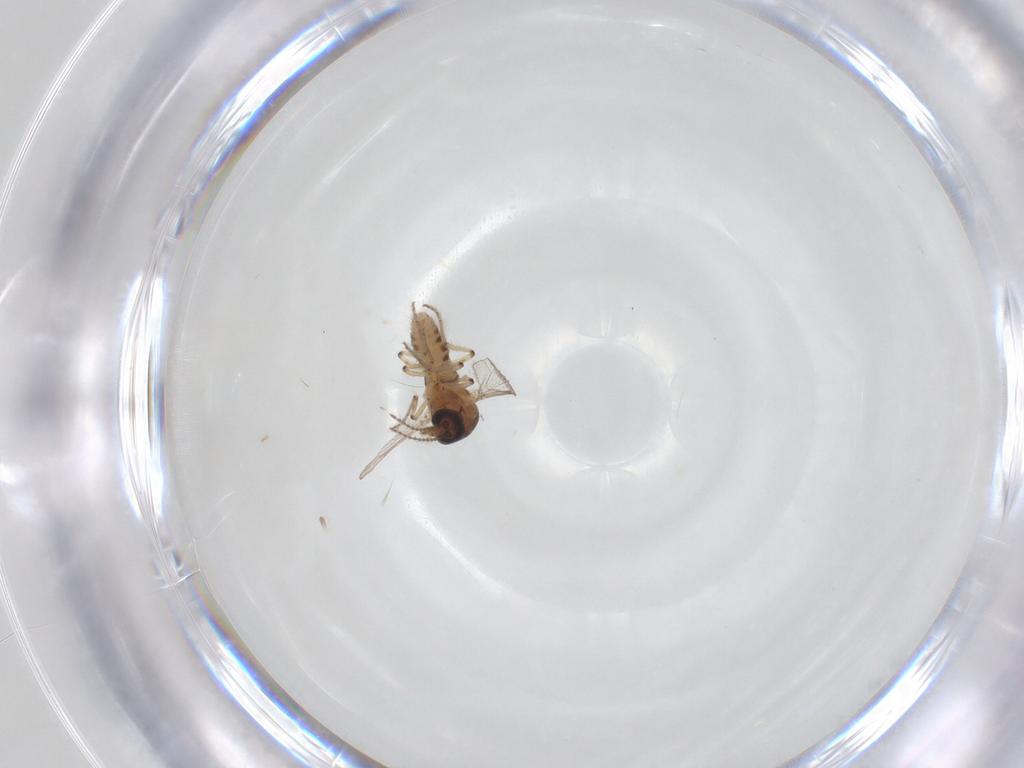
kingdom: Animalia
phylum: Arthropoda
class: Insecta
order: Diptera
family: Ceratopogonidae
